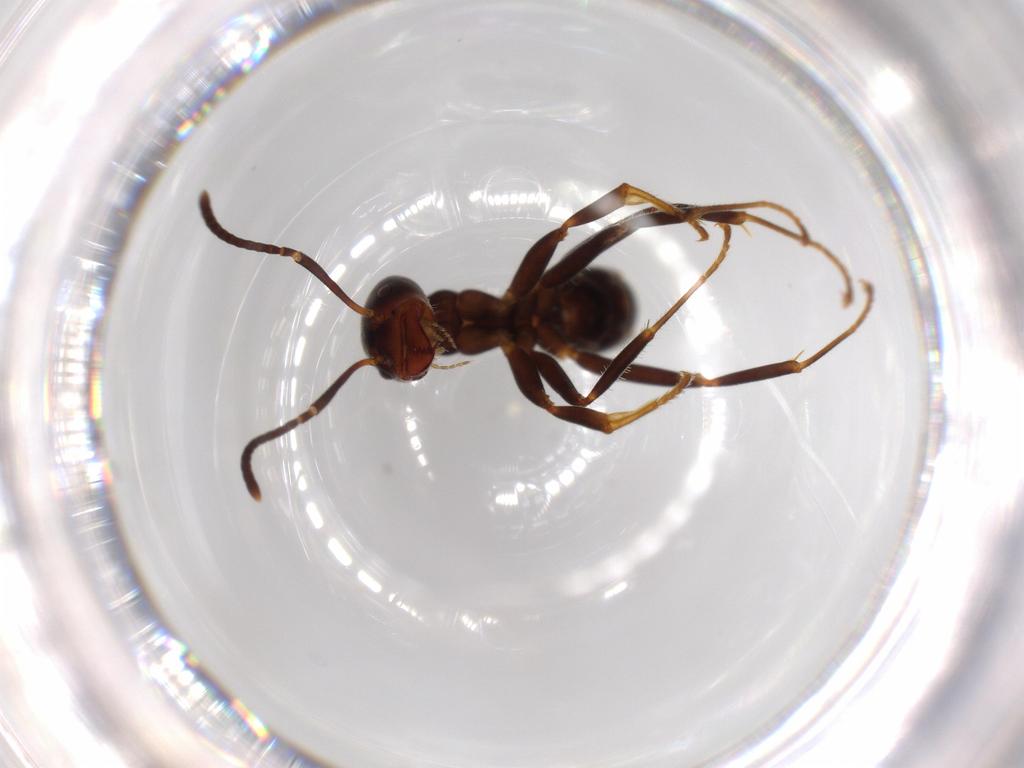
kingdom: Animalia
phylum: Arthropoda
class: Insecta
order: Hymenoptera
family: Formicidae
